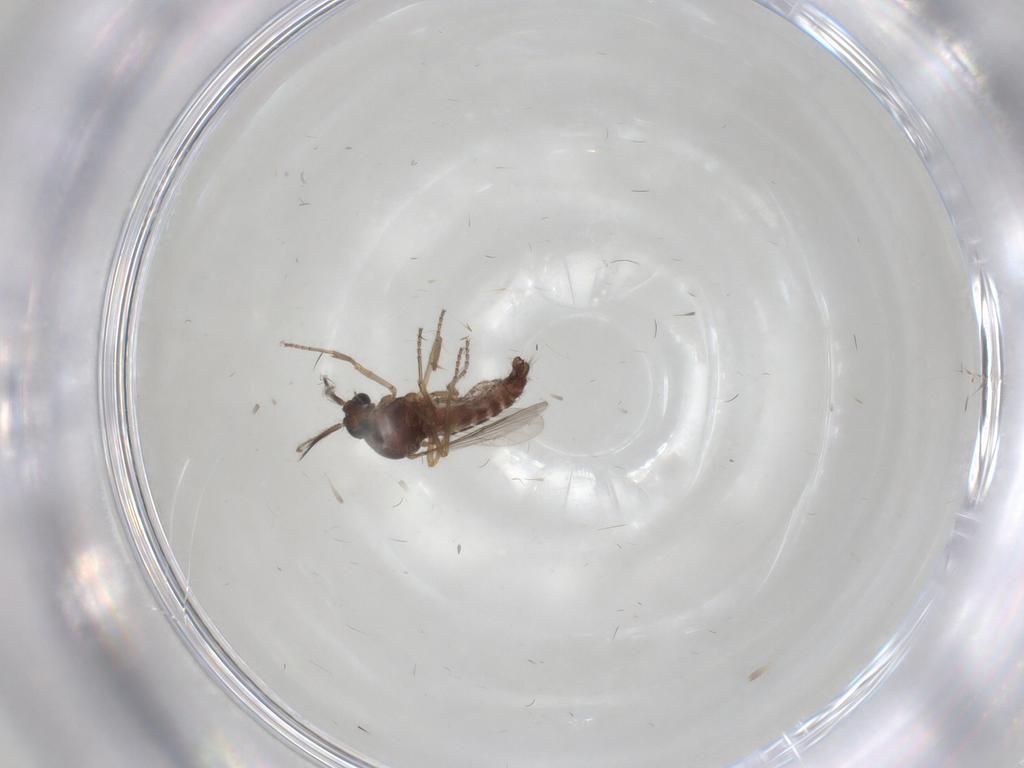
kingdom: Animalia
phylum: Arthropoda
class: Insecta
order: Diptera
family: Ceratopogonidae
